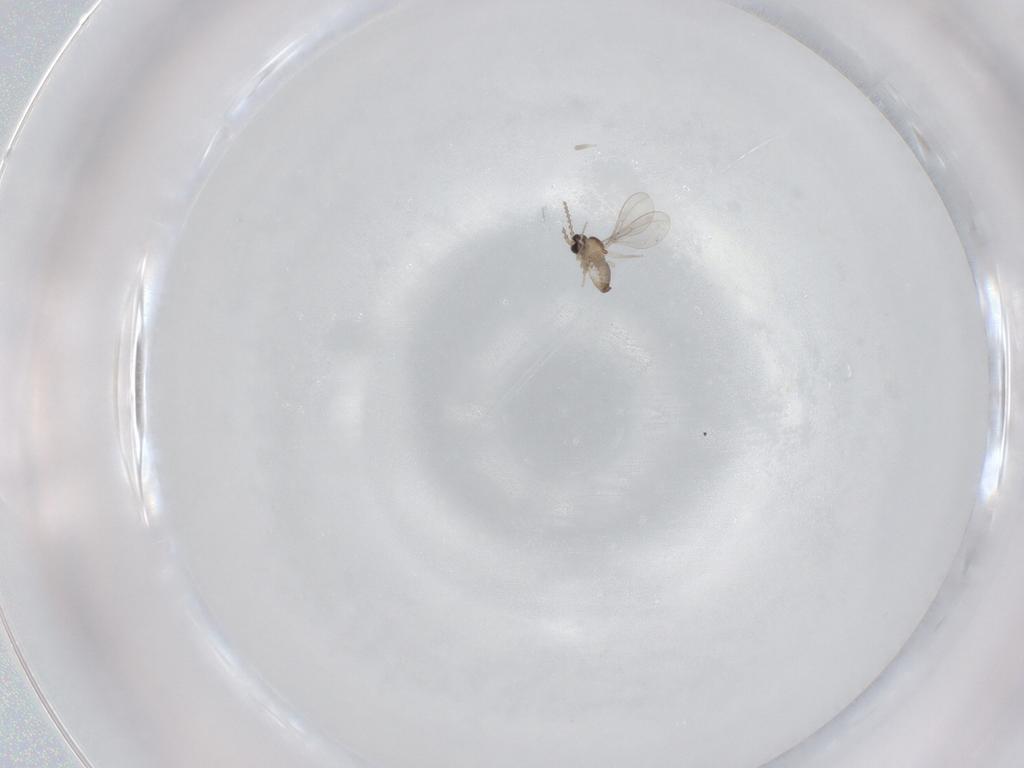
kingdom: Animalia
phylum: Arthropoda
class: Insecta
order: Diptera
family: Cecidomyiidae
